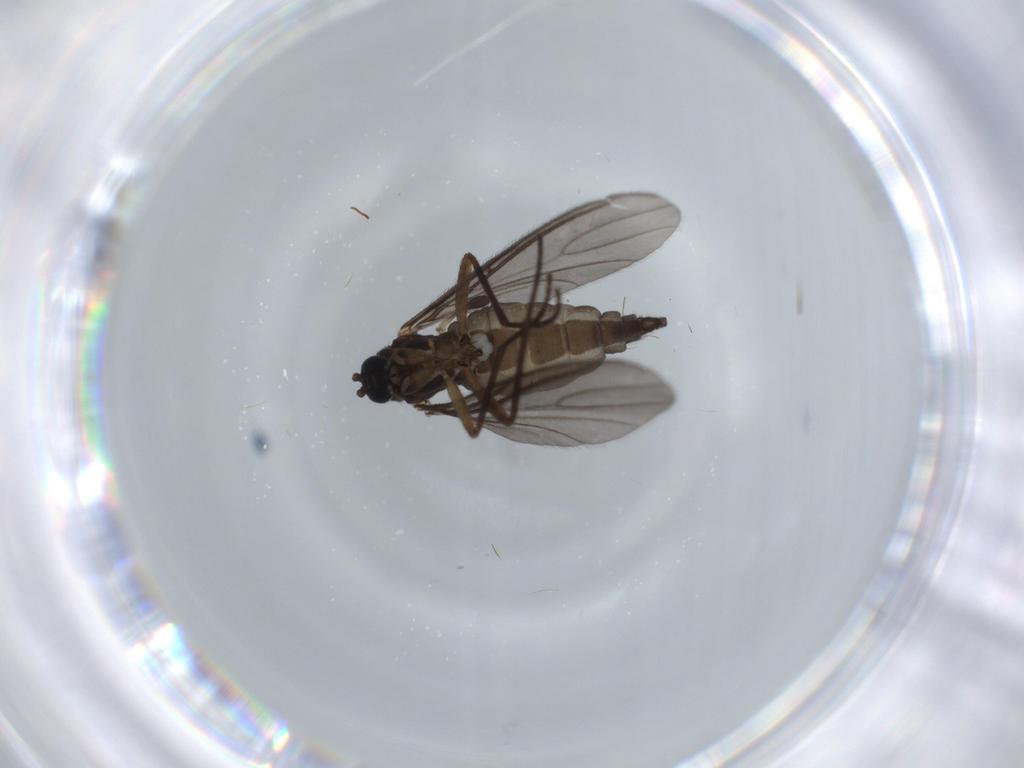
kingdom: Animalia
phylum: Arthropoda
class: Insecta
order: Diptera
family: Sciaridae
